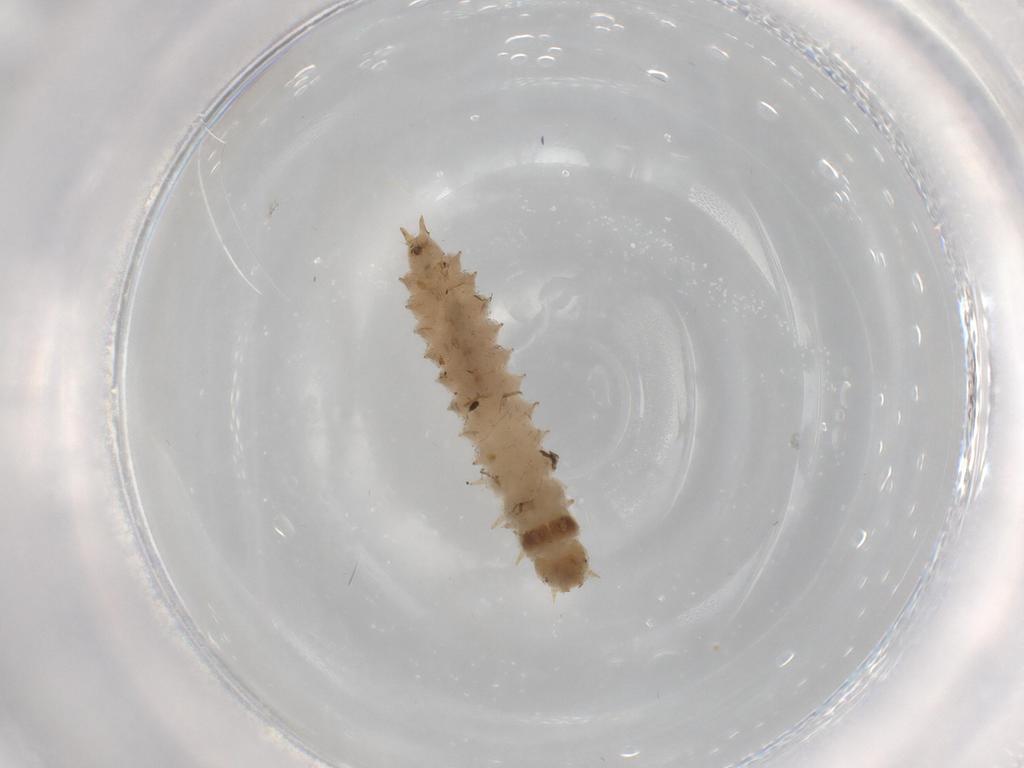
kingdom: Animalia
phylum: Arthropoda
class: Insecta
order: Coleoptera
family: Nitidulidae
